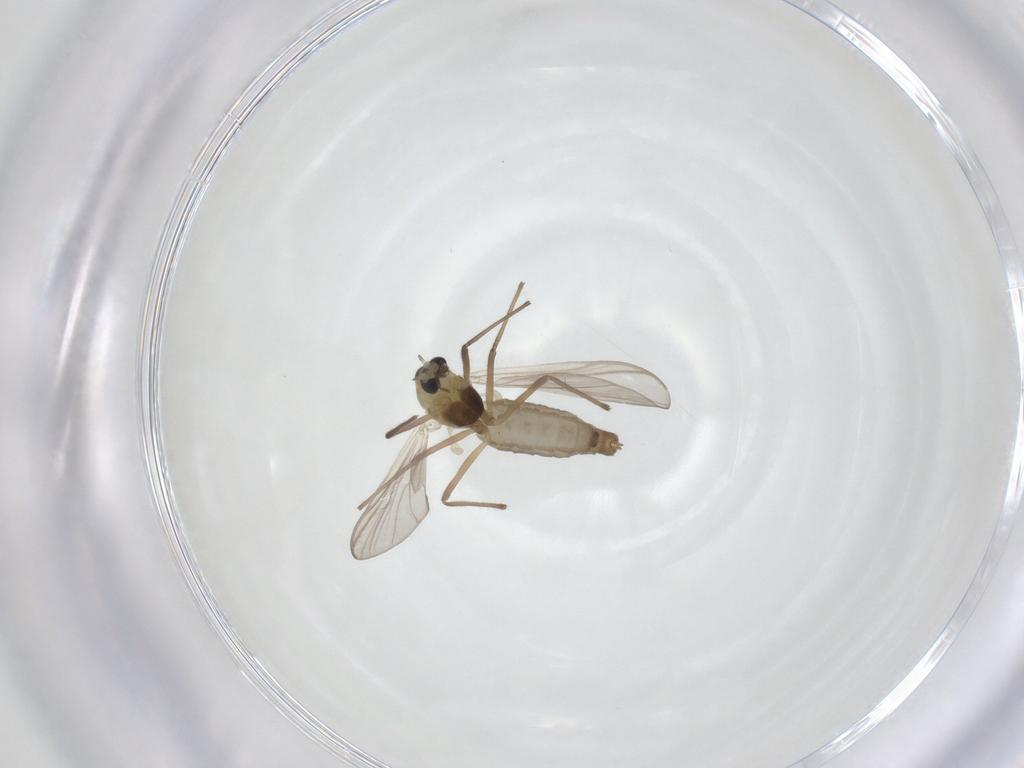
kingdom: Animalia
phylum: Arthropoda
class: Insecta
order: Diptera
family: Chironomidae
